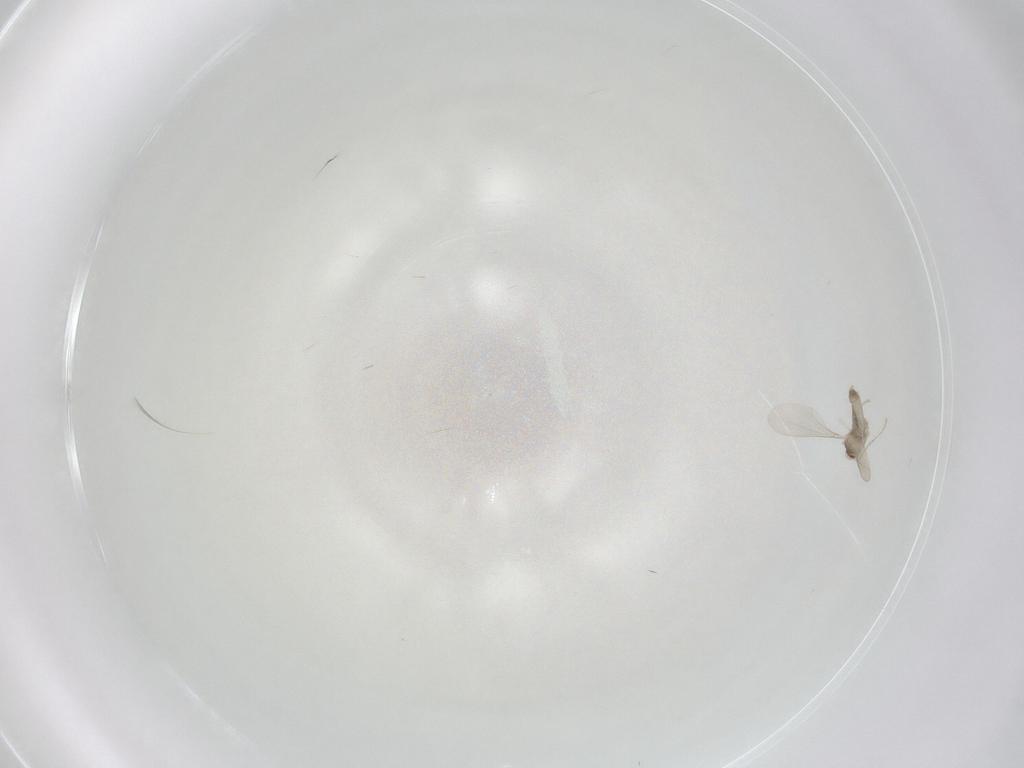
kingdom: Animalia
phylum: Arthropoda
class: Insecta
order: Diptera
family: Cecidomyiidae
